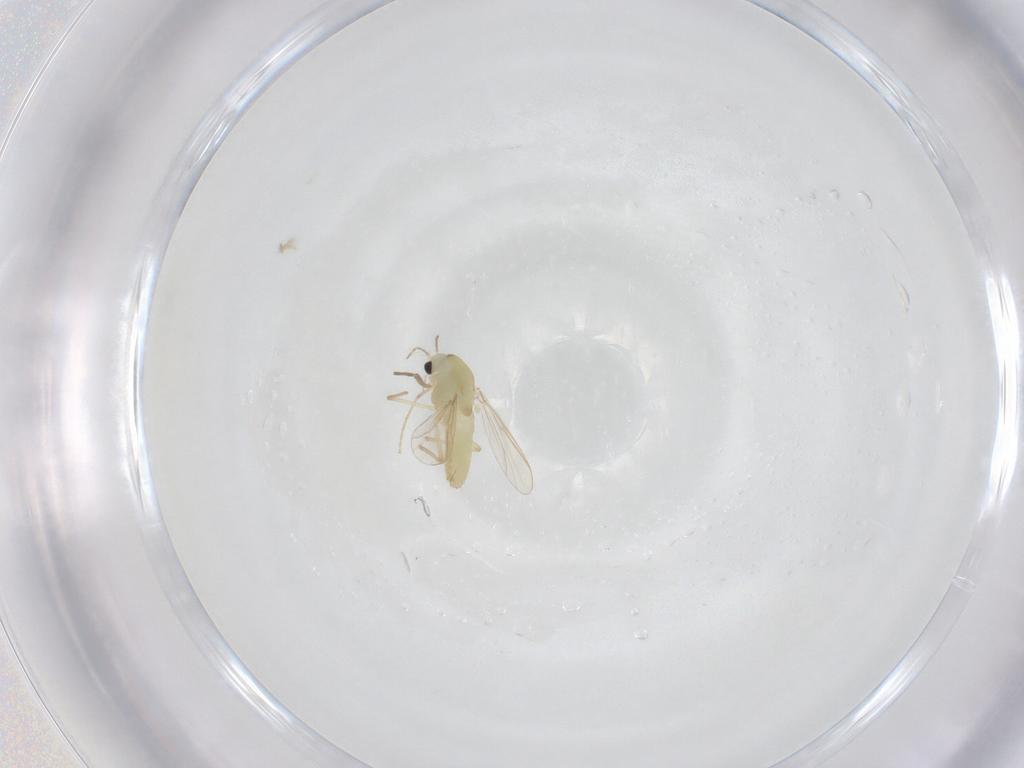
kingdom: Animalia
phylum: Arthropoda
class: Insecta
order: Diptera
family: Chironomidae
